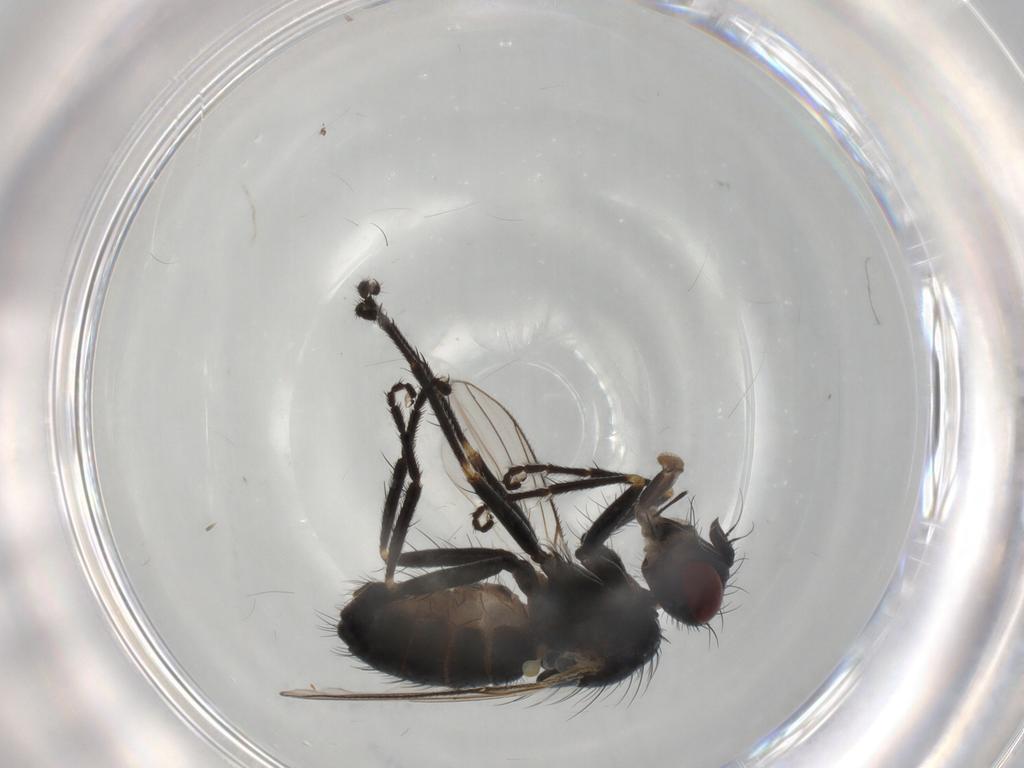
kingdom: Animalia
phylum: Arthropoda
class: Insecta
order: Diptera
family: Muscidae
